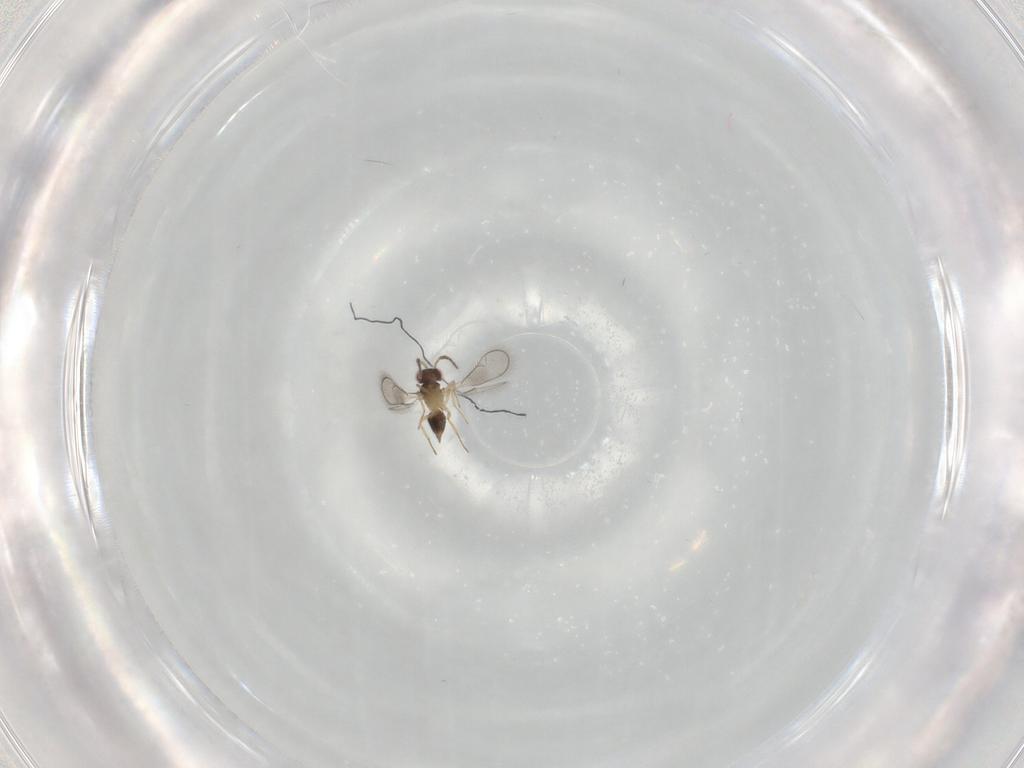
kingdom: Animalia
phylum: Arthropoda
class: Insecta
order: Hymenoptera
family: Eulophidae
